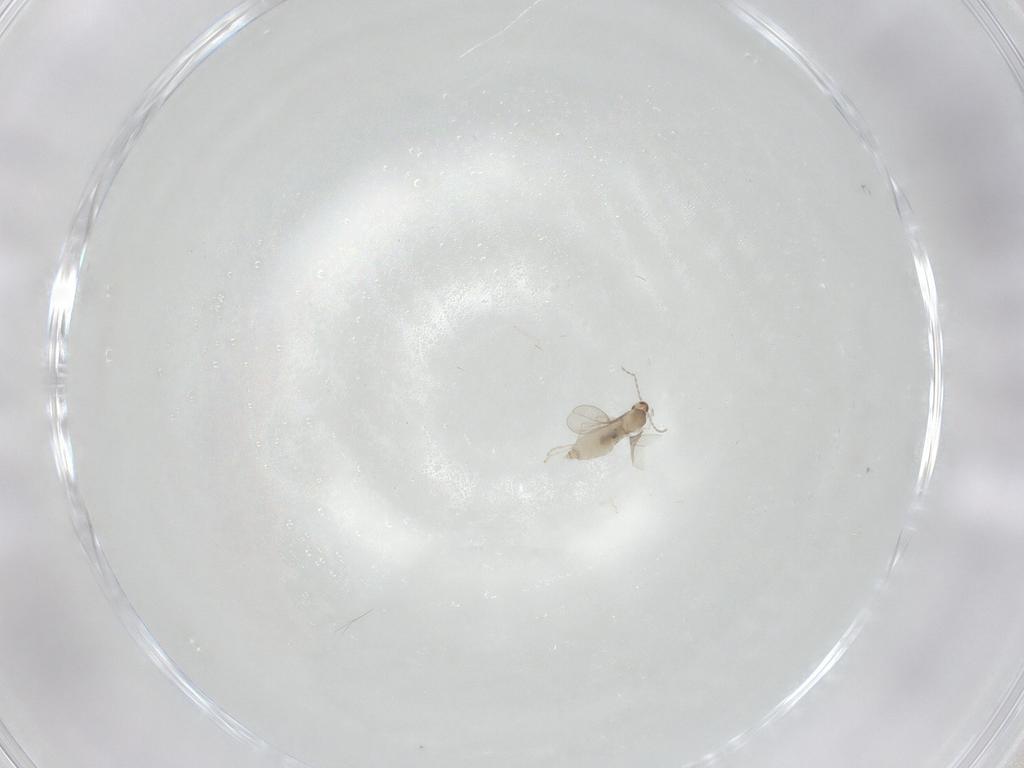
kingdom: Animalia
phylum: Arthropoda
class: Insecta
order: Diptera
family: Cecidomyiidae
